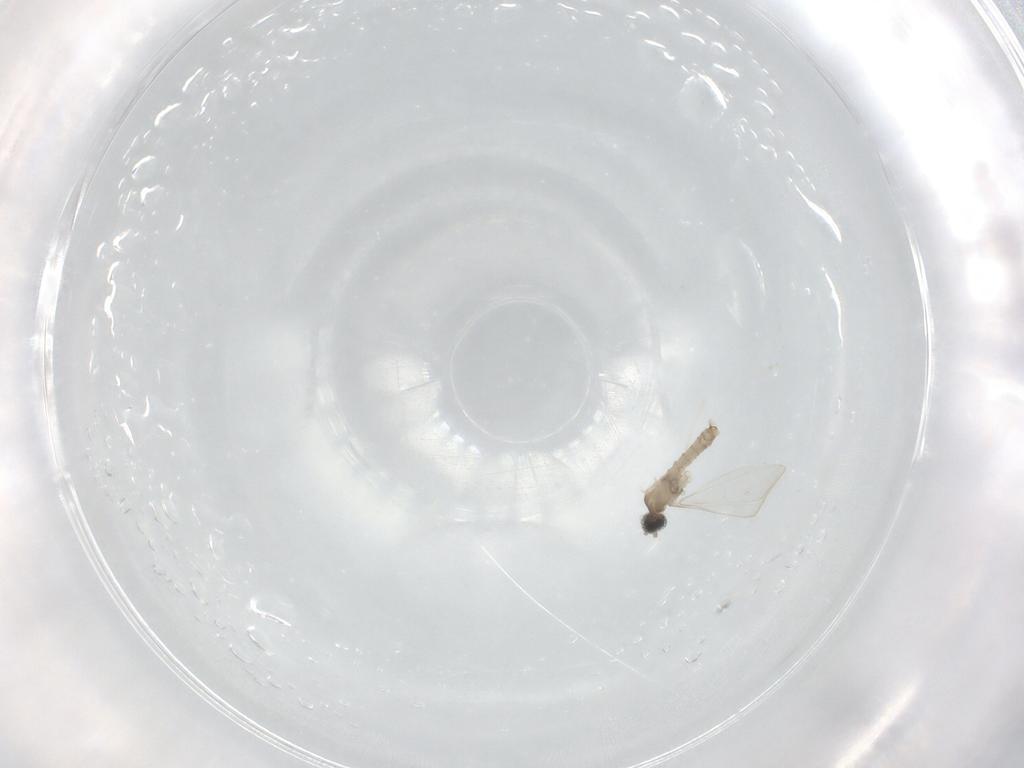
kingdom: Animalia
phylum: Arthropoda
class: Insecta
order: Diptera
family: Cecidomyiidae
